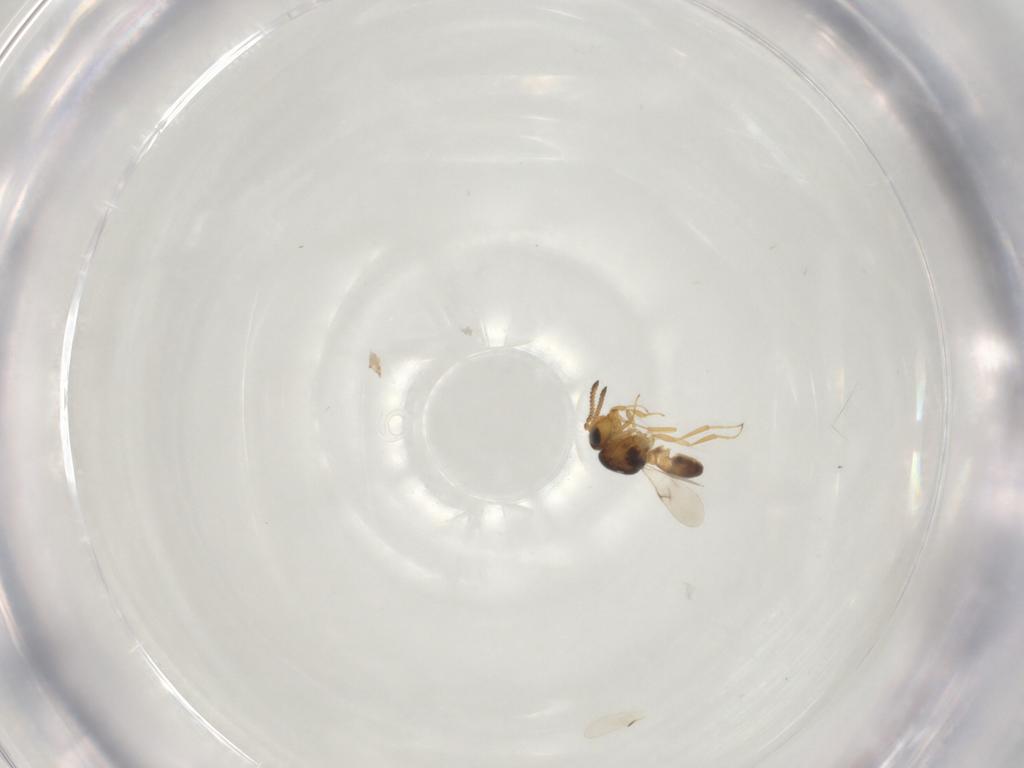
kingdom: Animalia
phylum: Arthropoda
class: Insecta
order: Hymenoptera
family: Scelionidae
